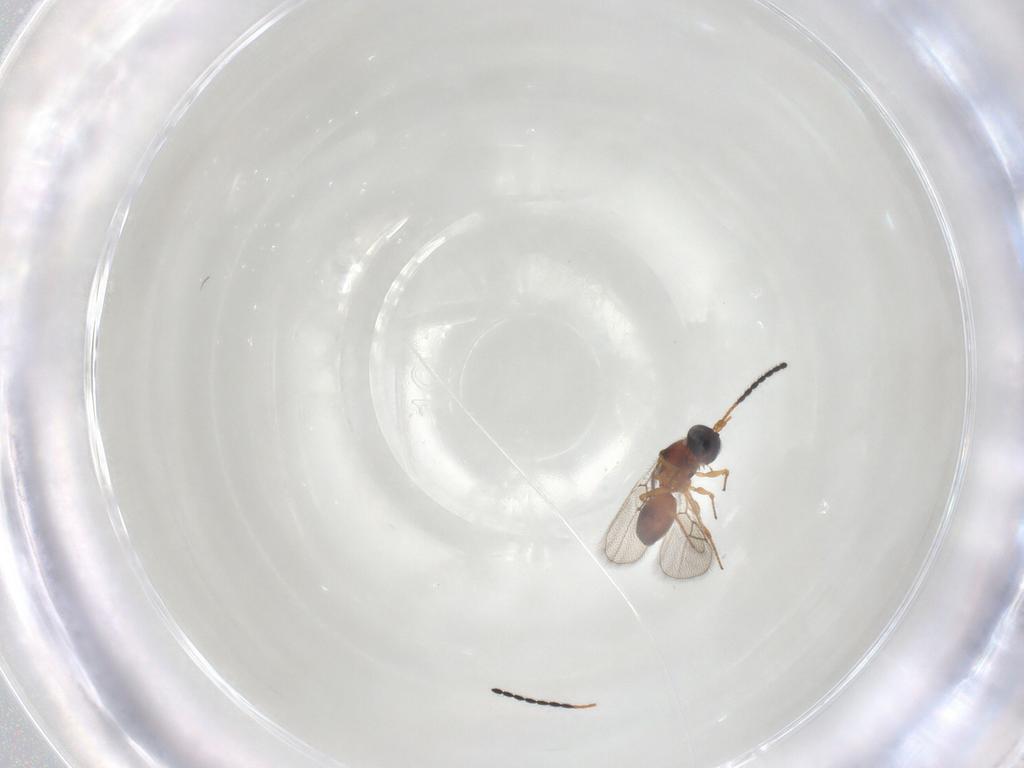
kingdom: Animalia
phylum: Arthropoda
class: Insecta
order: Hymenoptera
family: Figitidae
